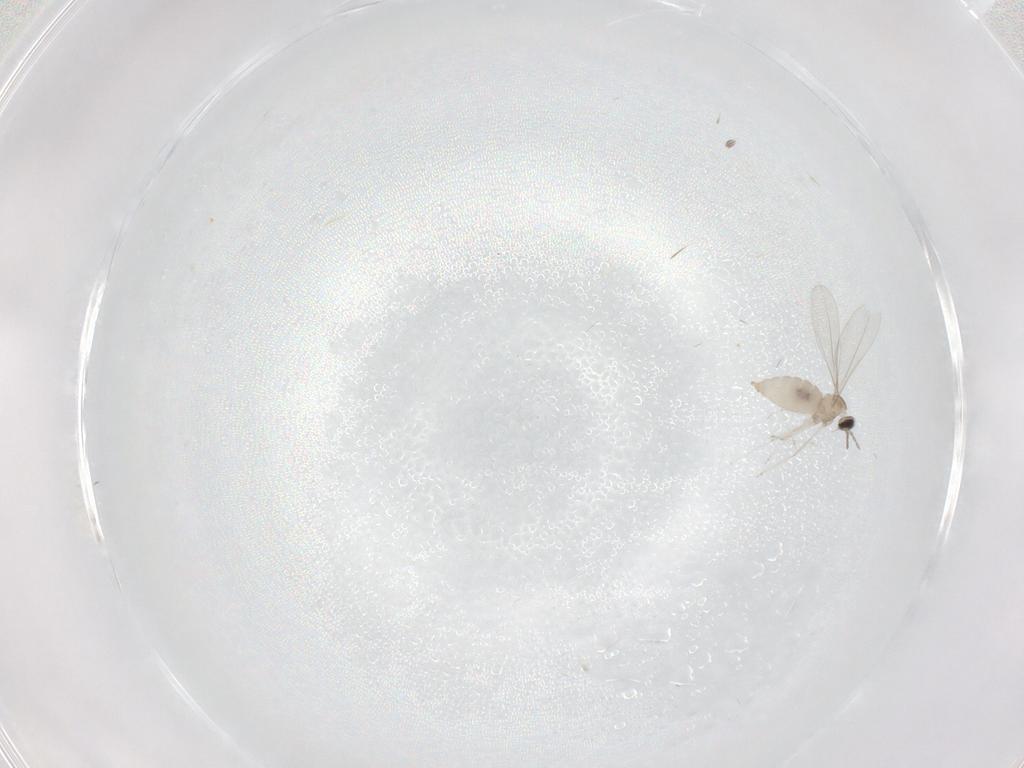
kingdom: Animalia
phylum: Arthropoda
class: Insecta
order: Diptera
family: Ceratopogonidae
